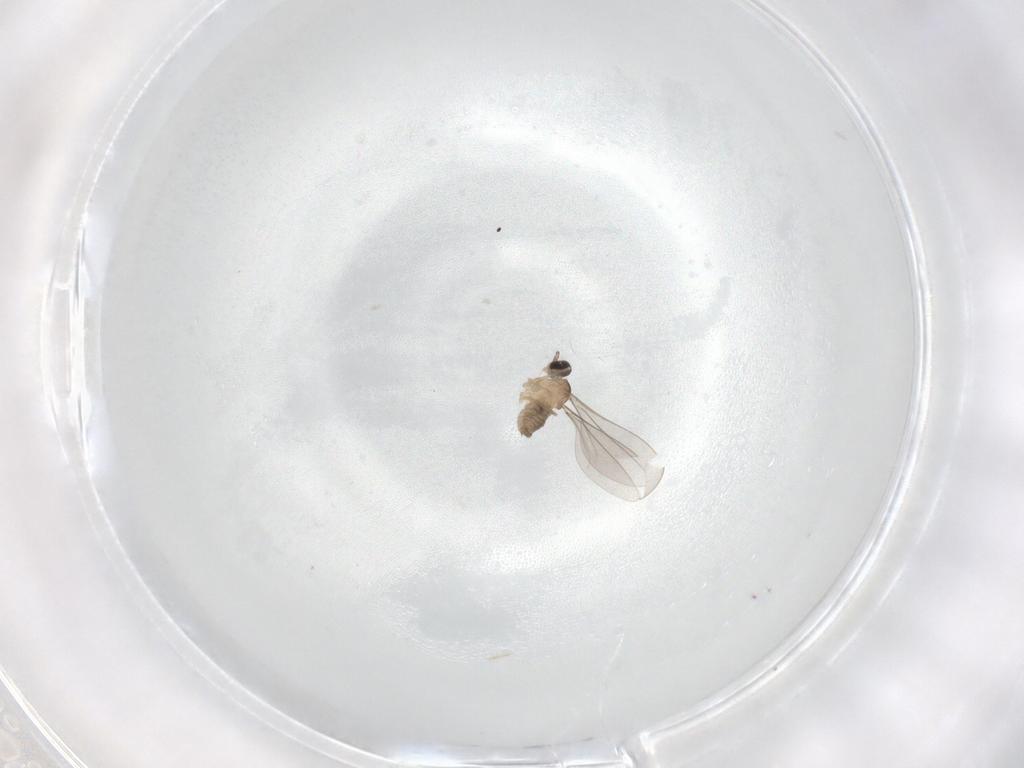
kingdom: Animalia
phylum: Arthropoda
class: Insecta
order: Diptera
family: Cecidomyiidae
